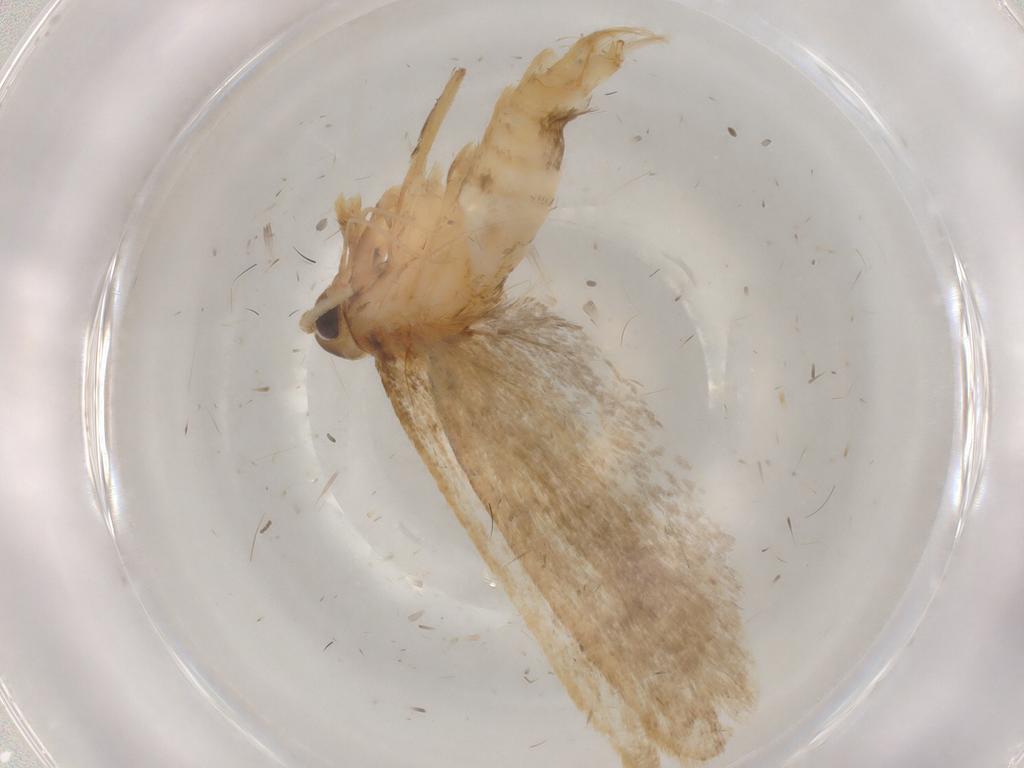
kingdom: Animalia
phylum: Arthropoda
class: Insecta
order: Lepidoptera
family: Lecithoceridae
